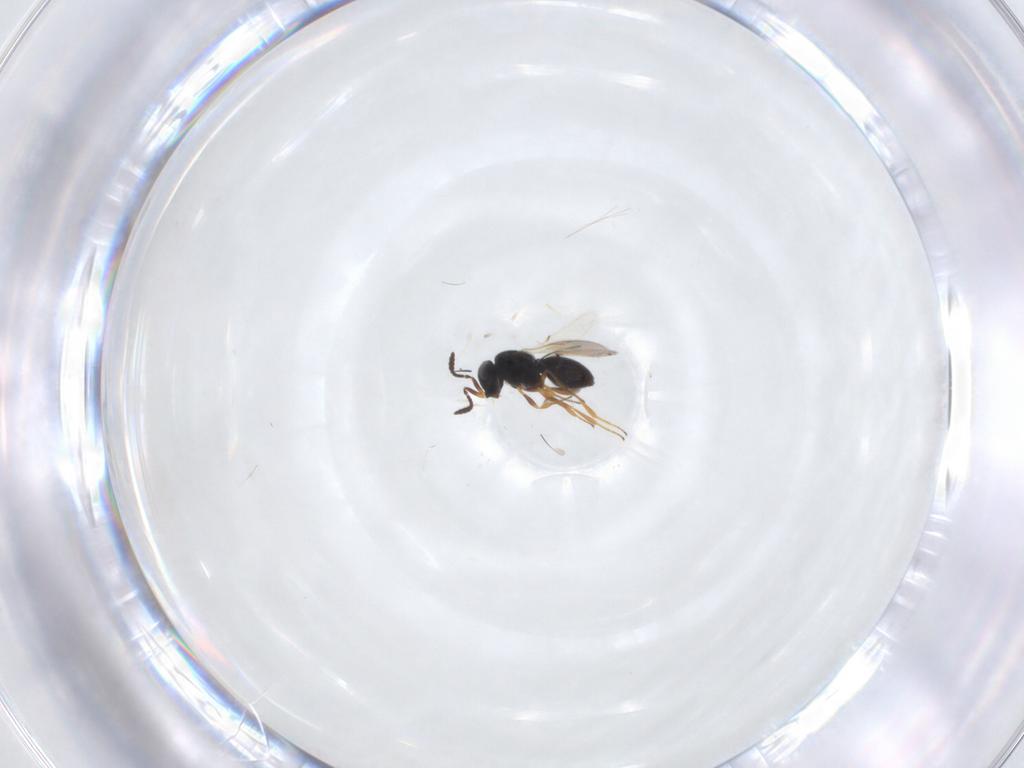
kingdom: Animalia
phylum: Arthropoda
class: Insecta
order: Hymenoptera
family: Scelionidae
